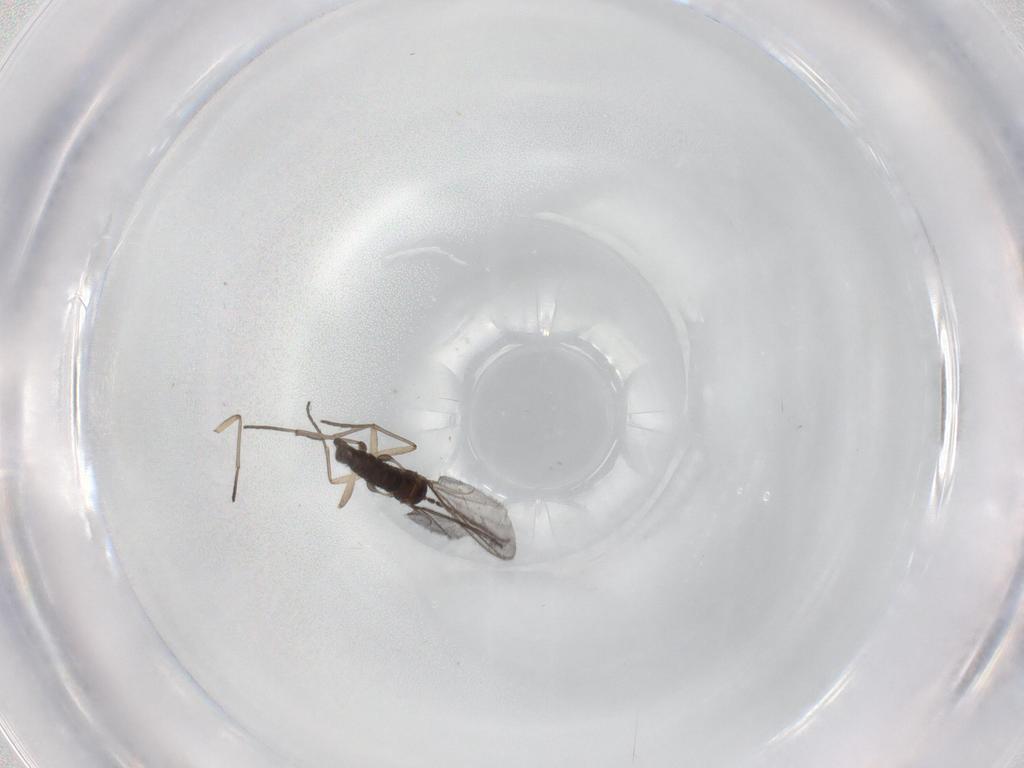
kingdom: Animalia
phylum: Arthropoda
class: Insecta
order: Diptera
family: Sciaridae
